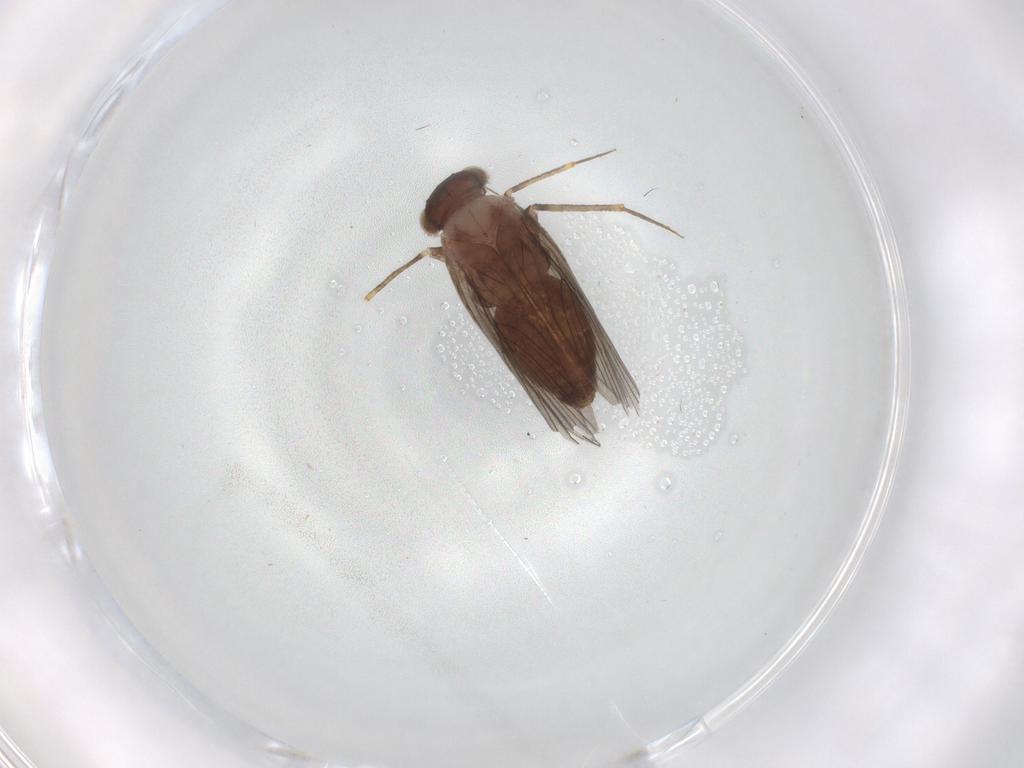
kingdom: Animalia
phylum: Arthropoda
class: Insecta
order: Psocodea
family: Lepidopsocidae
